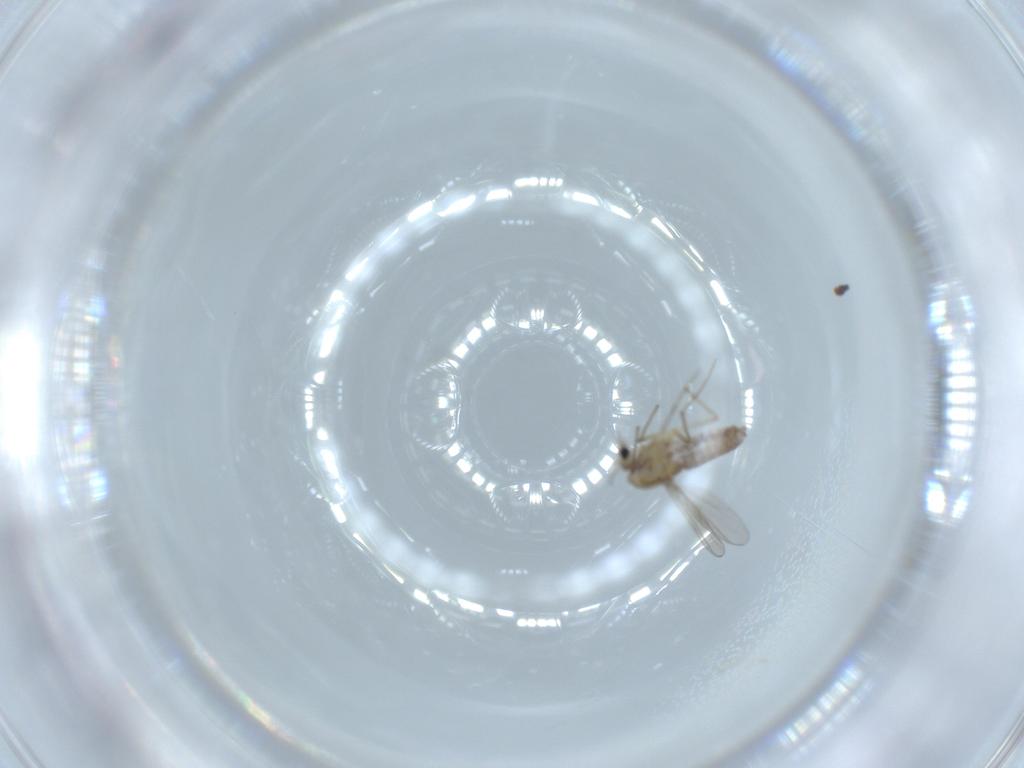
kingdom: Animalia
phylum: Arthropoda
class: Insecta
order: Diptera
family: Chironomidae
